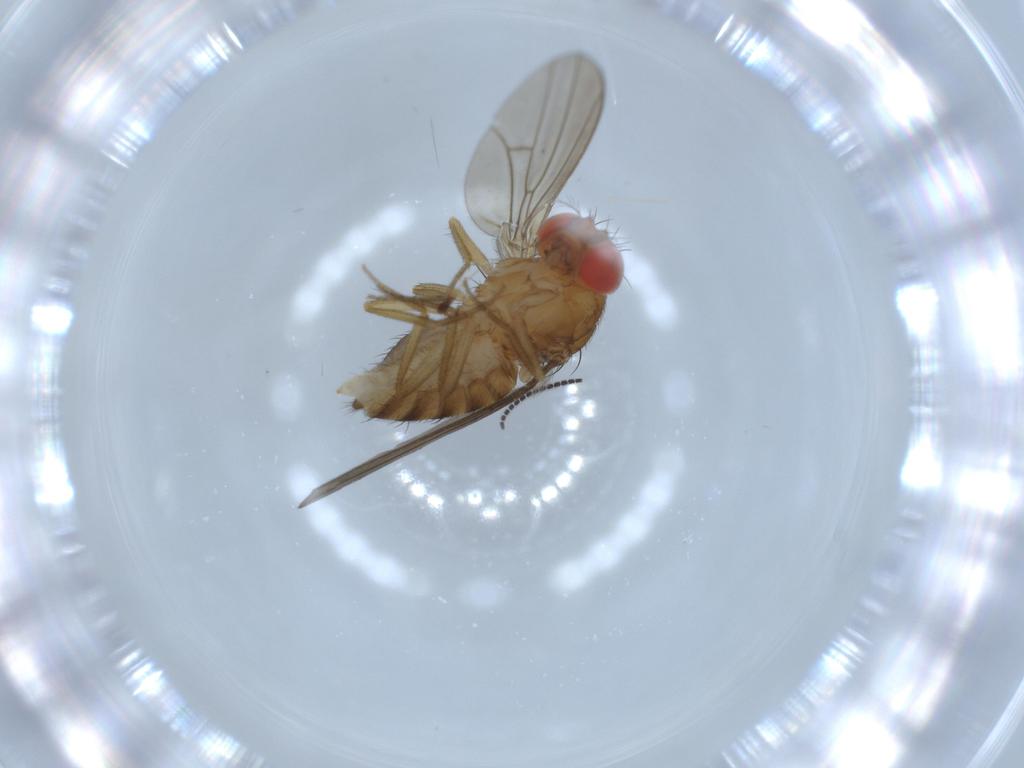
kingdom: Animalia
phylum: Arthropoda
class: Insecta
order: Diptera
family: Drosophilidae
